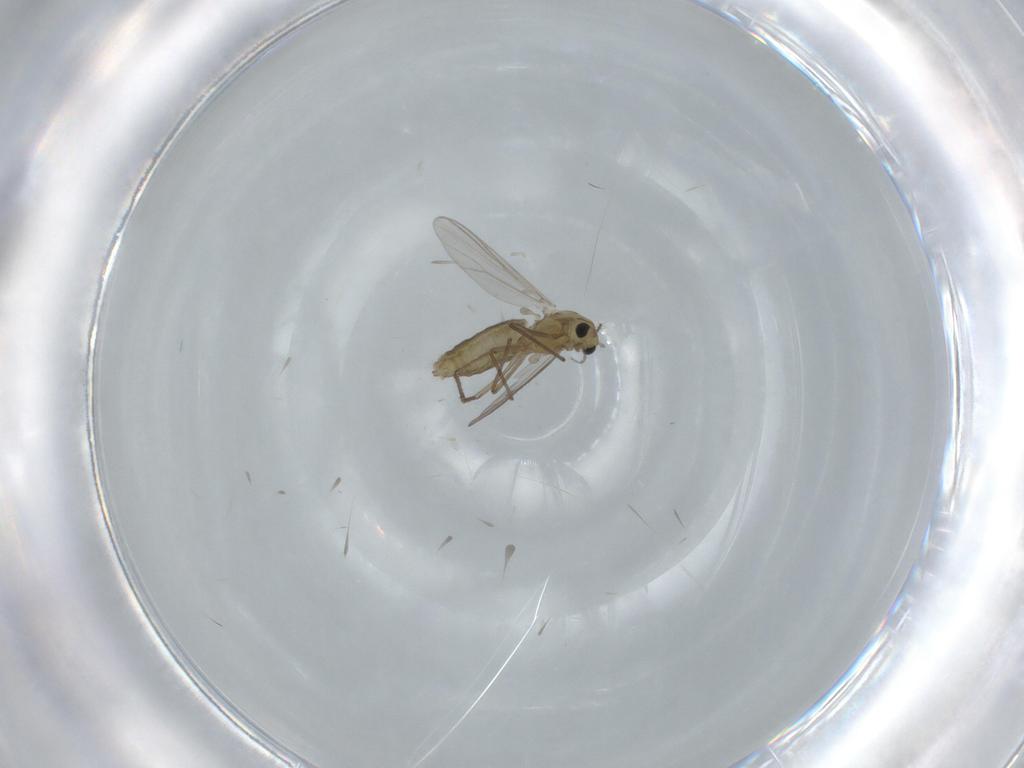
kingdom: Animalia
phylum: Arthropoda
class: Insecta
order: Diptera
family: Chironomidae
